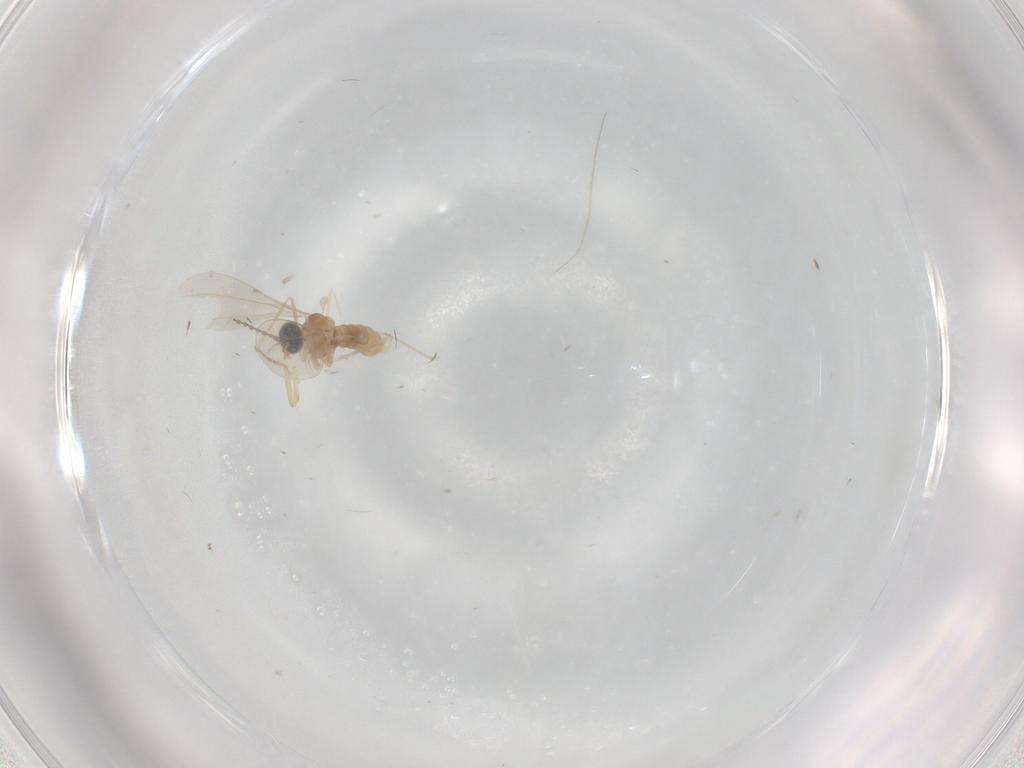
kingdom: Animalia
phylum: Arthropoda
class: Insecta
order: Diptera
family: Cecidomyiidae
